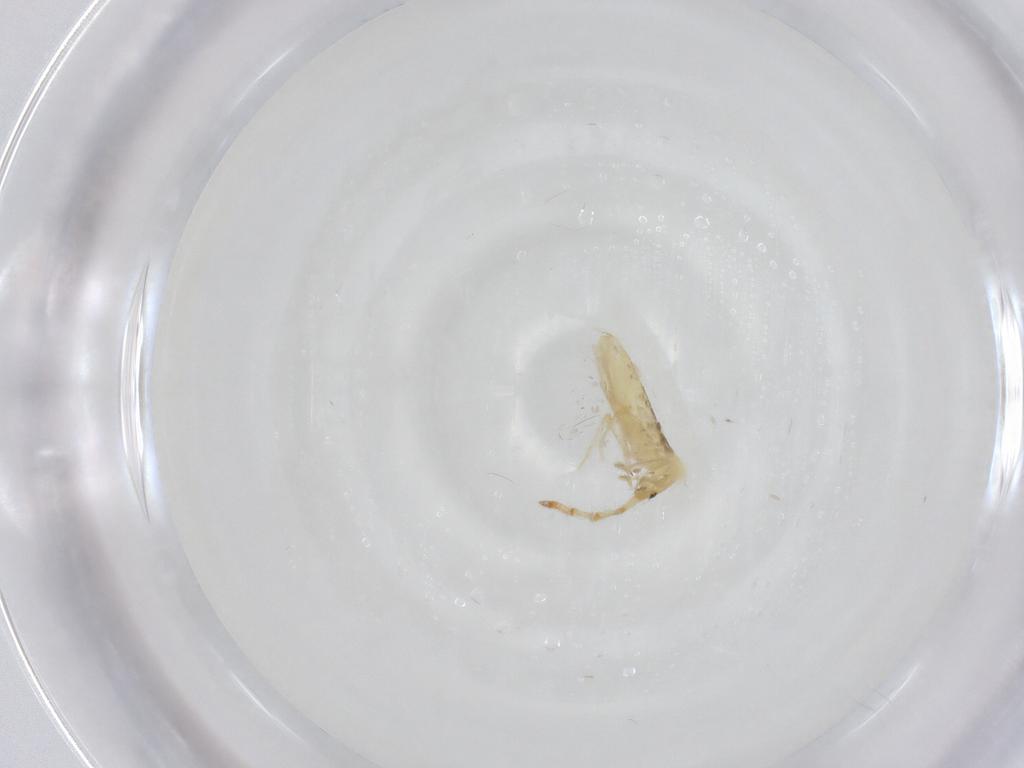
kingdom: Animalia
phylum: Arthropoda
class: Collembola
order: Entomobryomorpha
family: Entomobryidae
